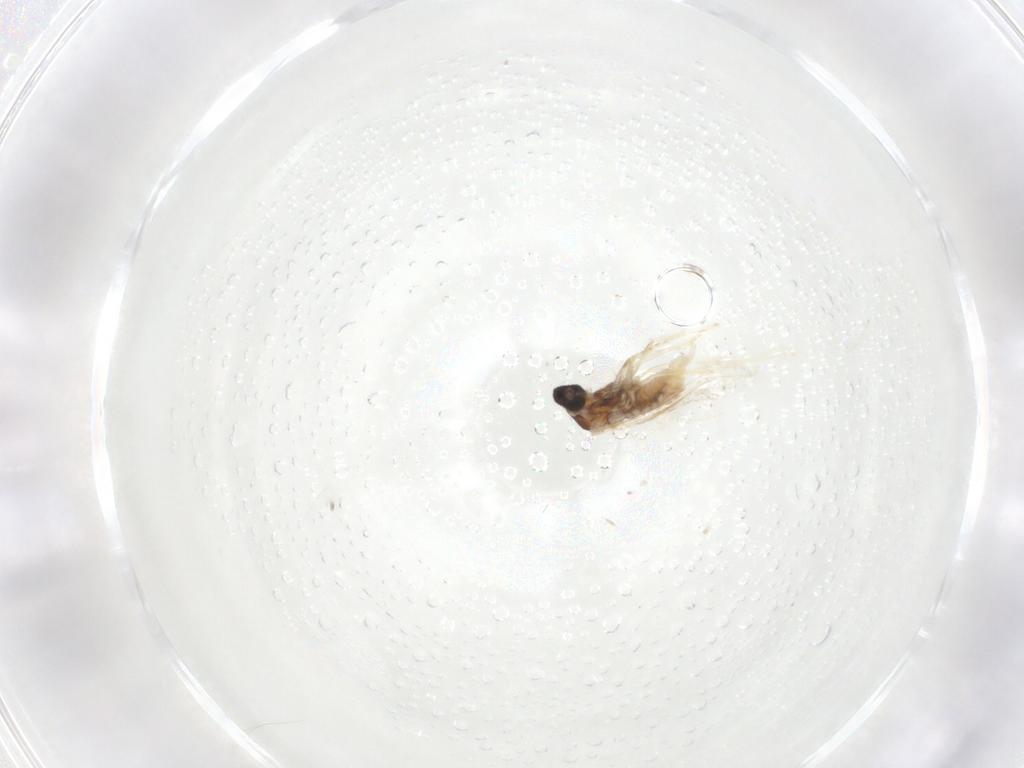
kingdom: Animalia
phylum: Arthropoda
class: Insecta
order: Diptera
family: Cecidomyiidae
